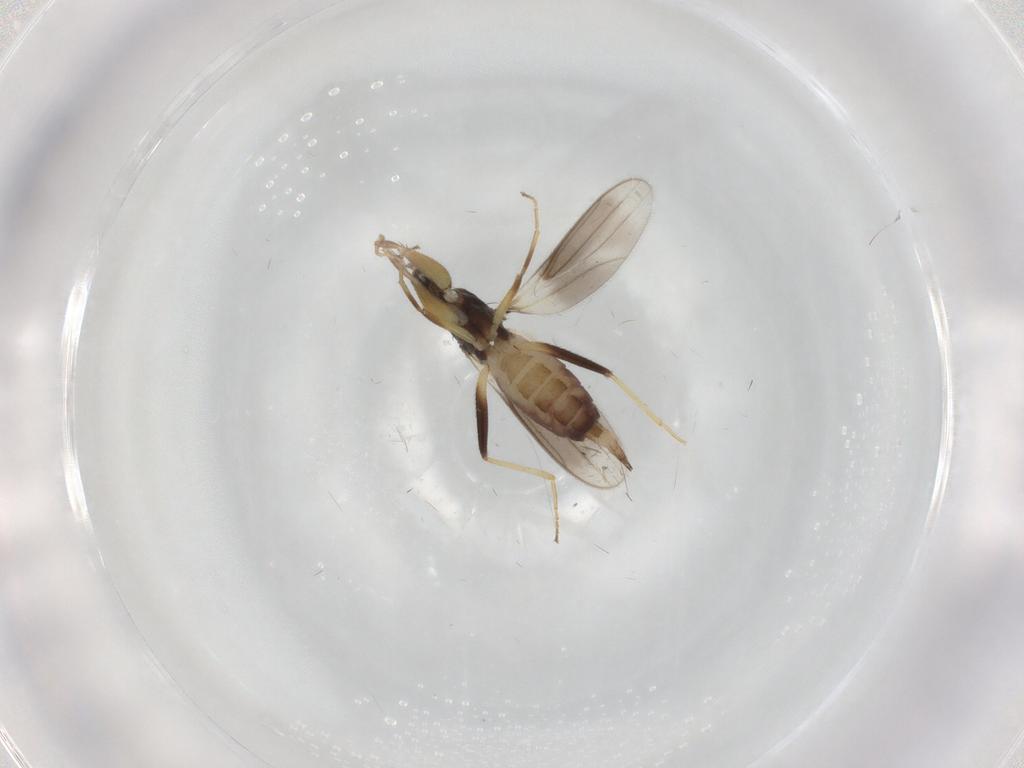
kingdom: Animalia
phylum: Arthropoda
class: Insecta
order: Diptera
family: Hybotidae
